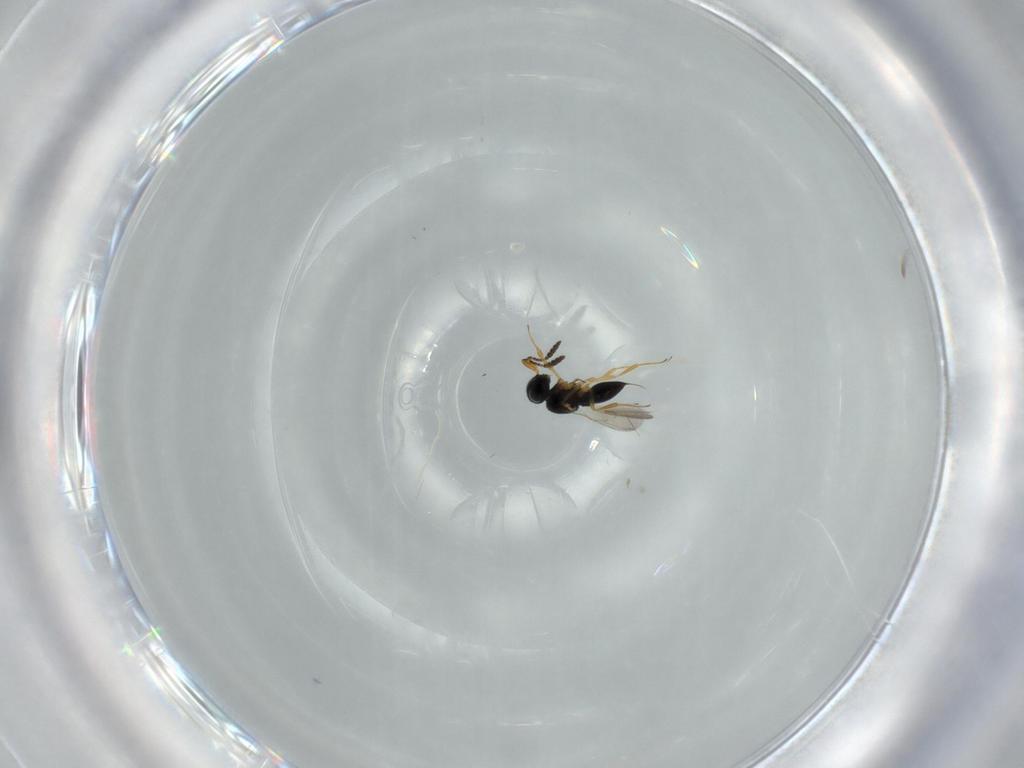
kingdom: Animalia
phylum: Arthropoda
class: Insecta
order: Hymenoptera
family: Scelionidae
